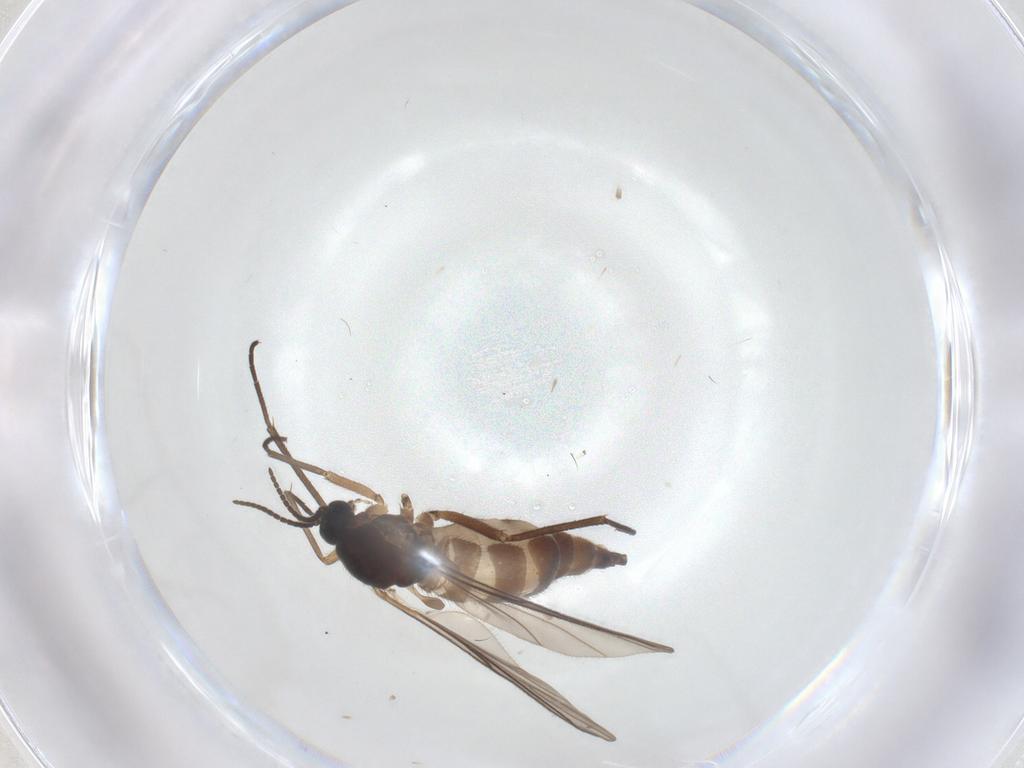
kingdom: Animalia
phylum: Arthropoda
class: Insecta
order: Diptera
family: Sciaridae
